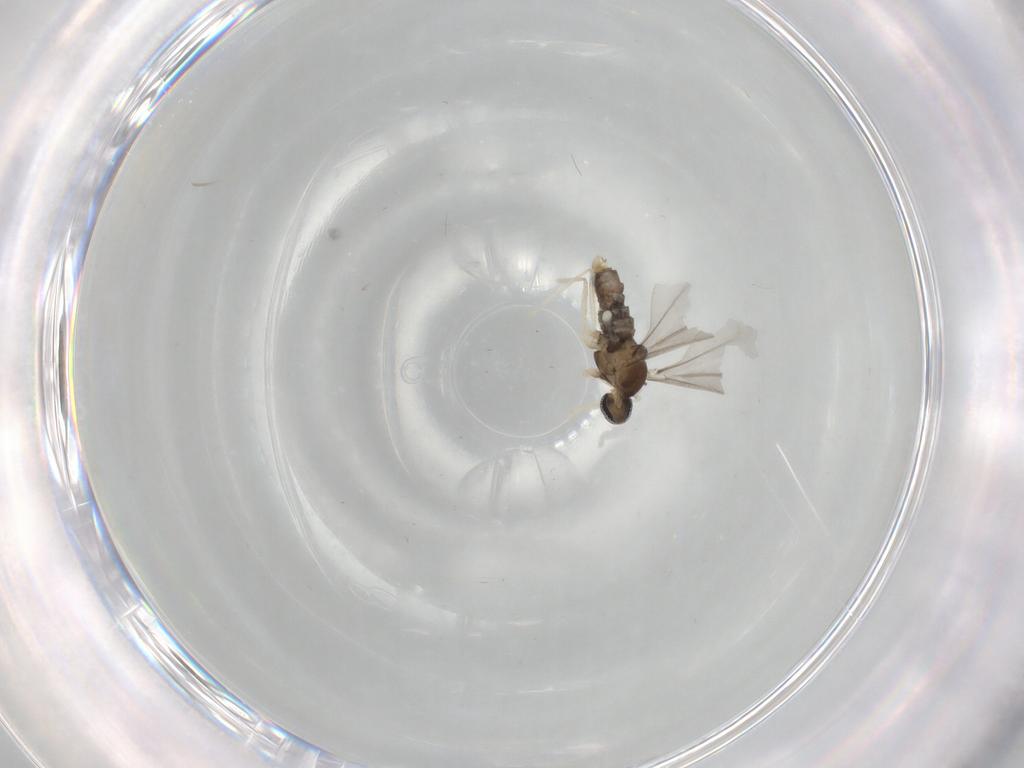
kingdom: Animalia
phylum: Arthropoda
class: Insecta
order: Diptera
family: Cecidomyiidae
